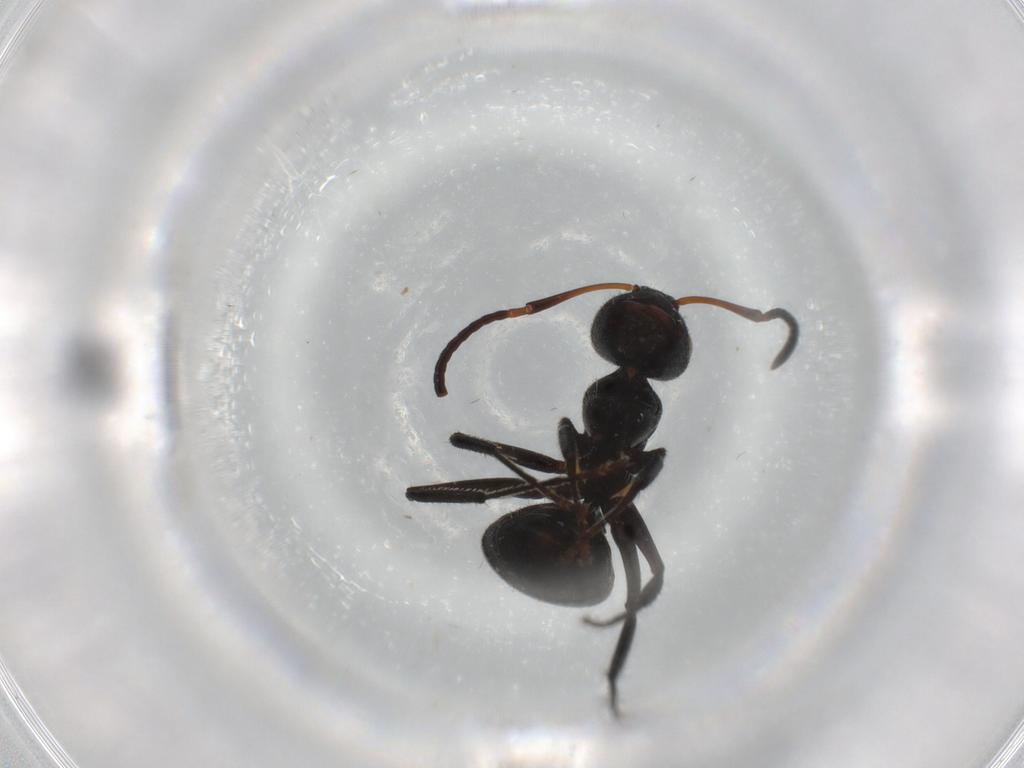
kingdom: Animalia
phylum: Arthropoda
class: Insecta
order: Hymenoptera
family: Formicidae
